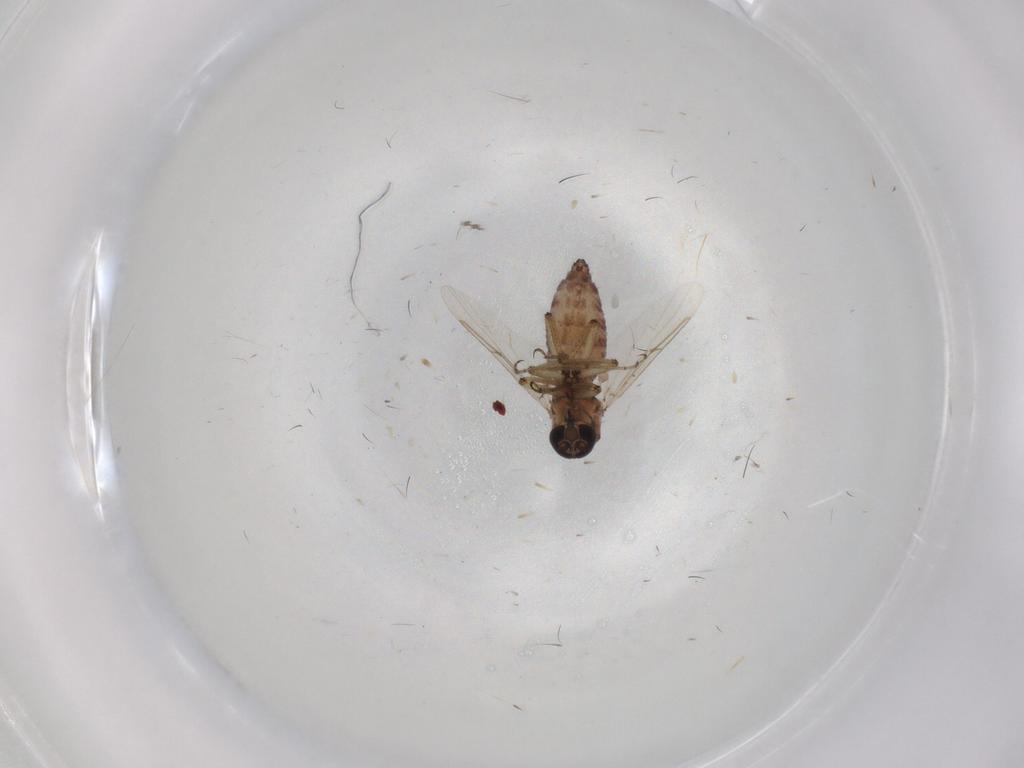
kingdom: Animalia
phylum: Arthropoda
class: Insecta
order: Diptera
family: Ceratopogonidae
